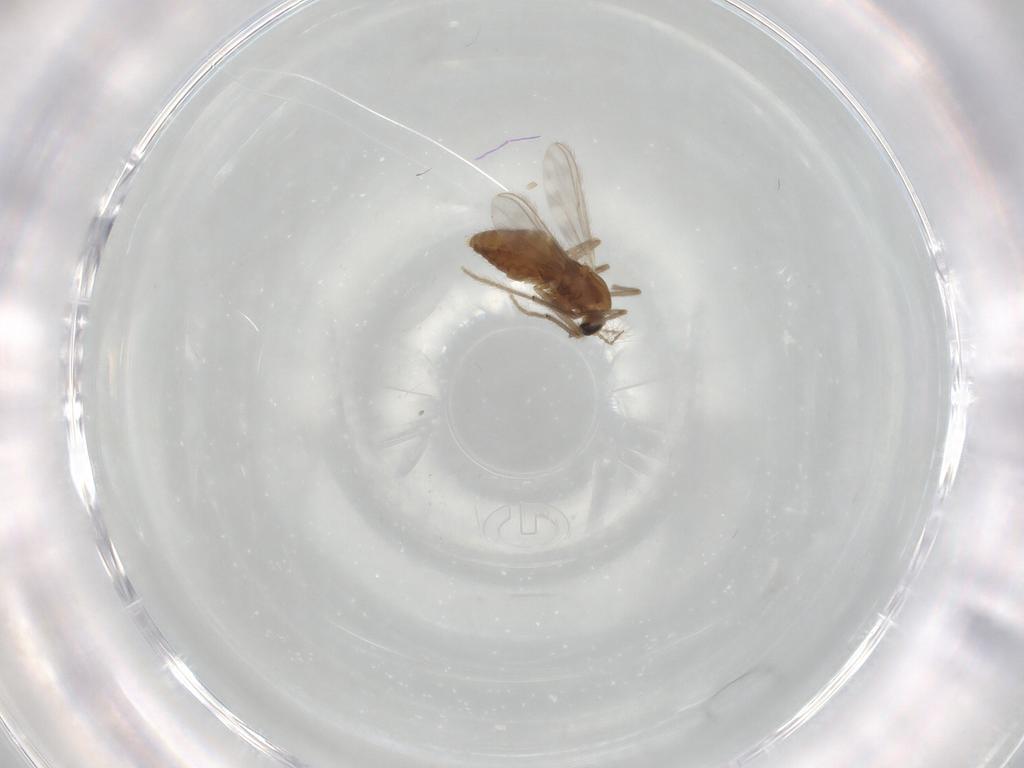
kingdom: Animalia
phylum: Arthropoda
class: Insecta
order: Diptera
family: Chironomidae
